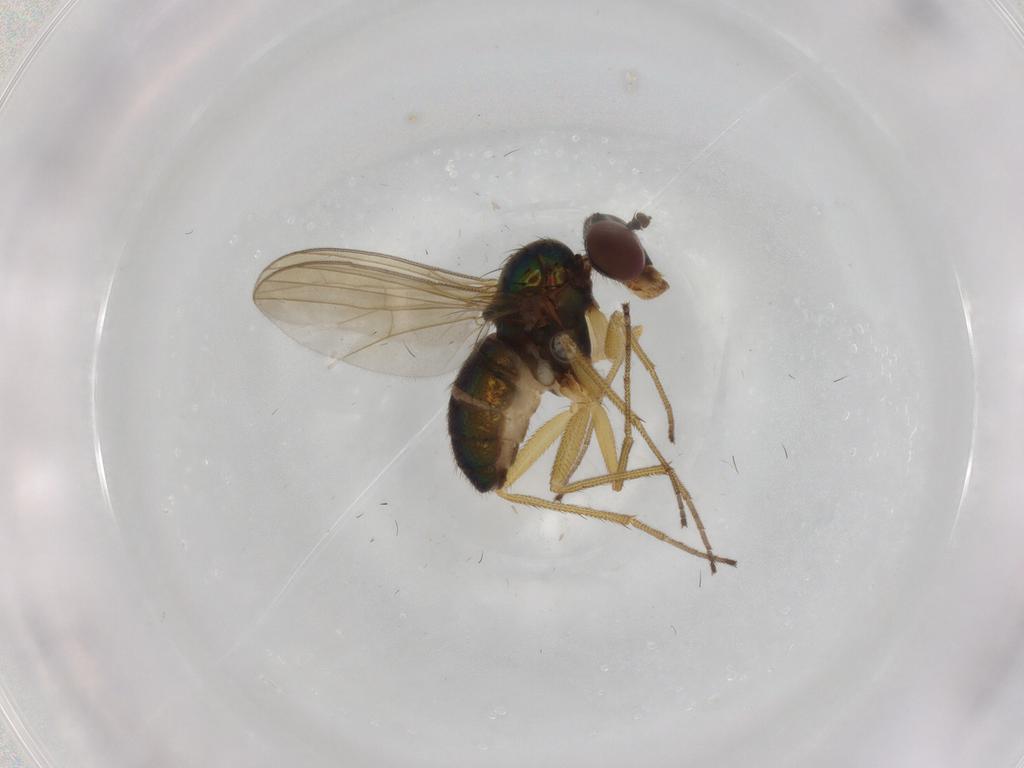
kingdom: Animalia
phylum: Arthropoda
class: Insecta
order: Diptera
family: Dolichopodidae
